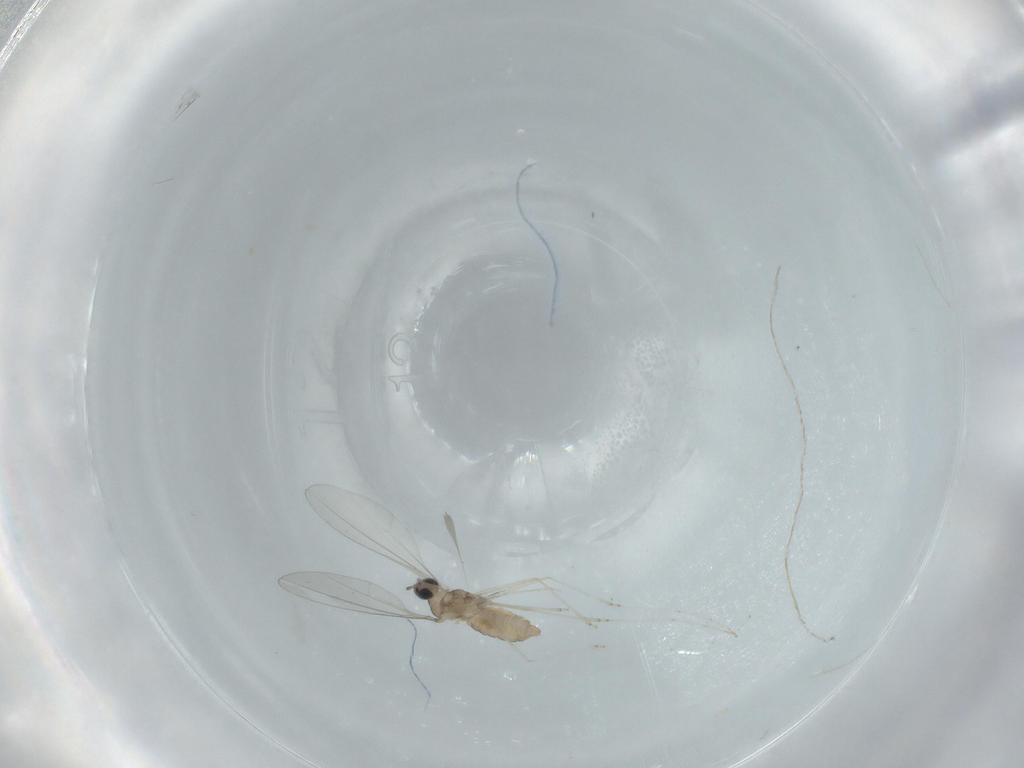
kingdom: Animalia
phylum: Arthropoda
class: Insecta
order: Diptera
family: Cecidomyiidae
